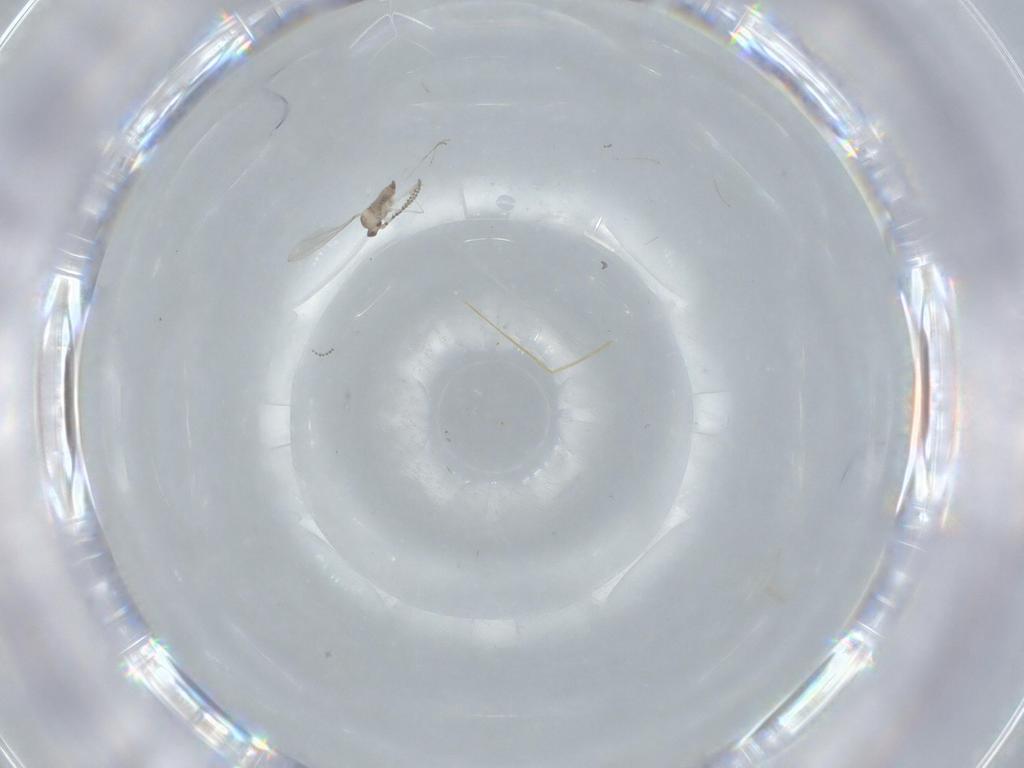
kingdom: Animalia
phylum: Arthropoda
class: Insecta
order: Diptera
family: Cecidomyiidae
